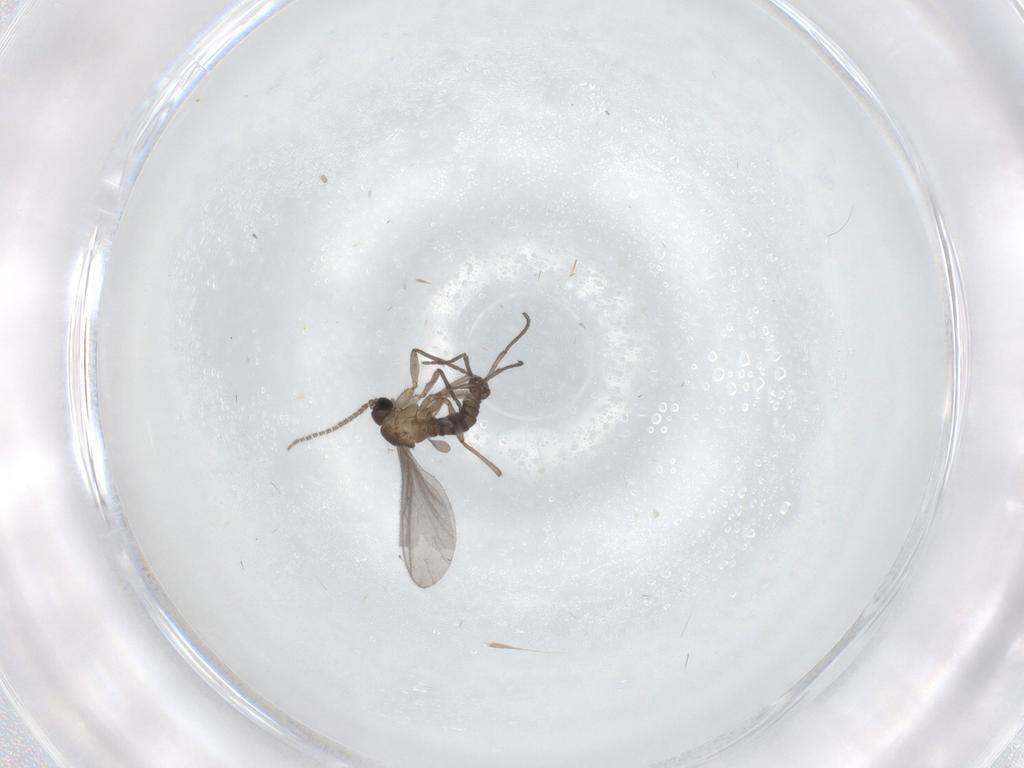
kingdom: Animalia
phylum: Arthropoda
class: Insecta
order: Diptera
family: Sciaridae
